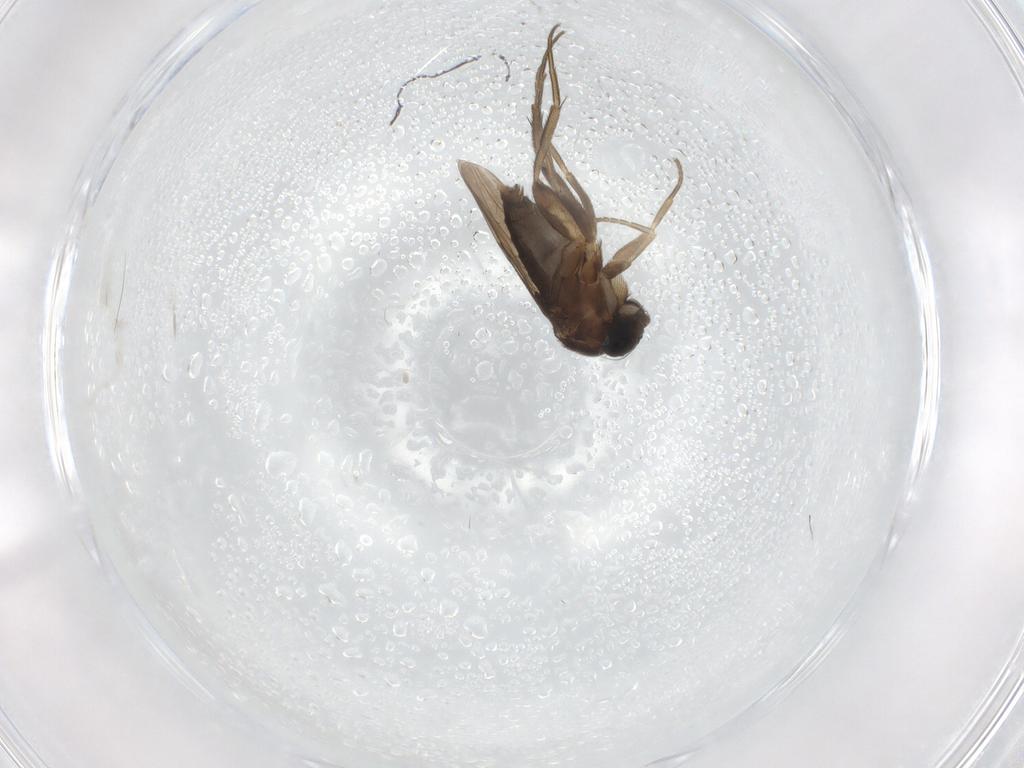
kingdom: Animalia
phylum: Arthropoda
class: Insecta
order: Diptera
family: Phoridae
